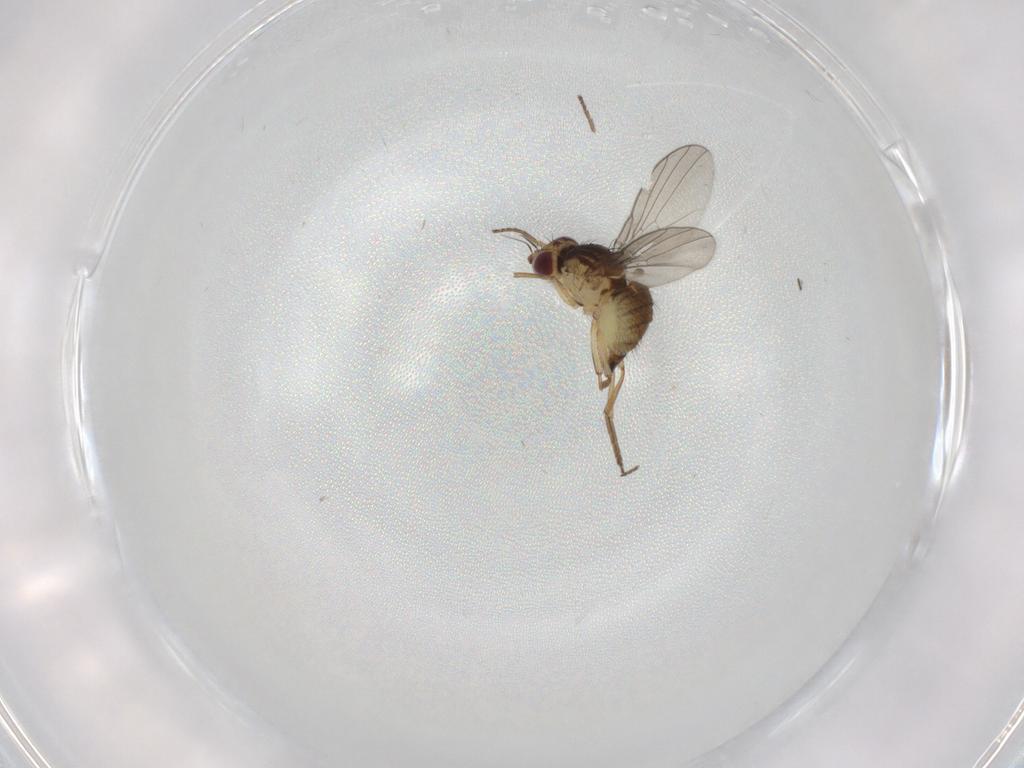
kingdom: Animalia
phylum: Arthropoda
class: Insecta
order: Diptera
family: Agromyzidae
